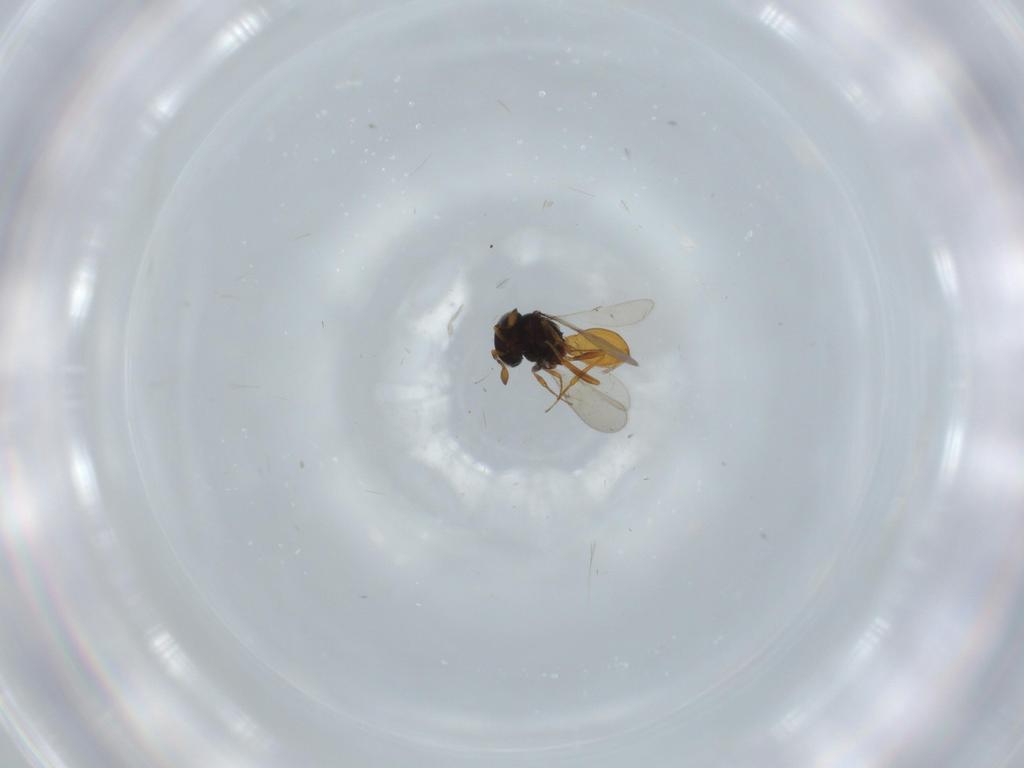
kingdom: Animalia
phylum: Arthropoda
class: Insecta
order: Hymenoptera
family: Scelionidae
